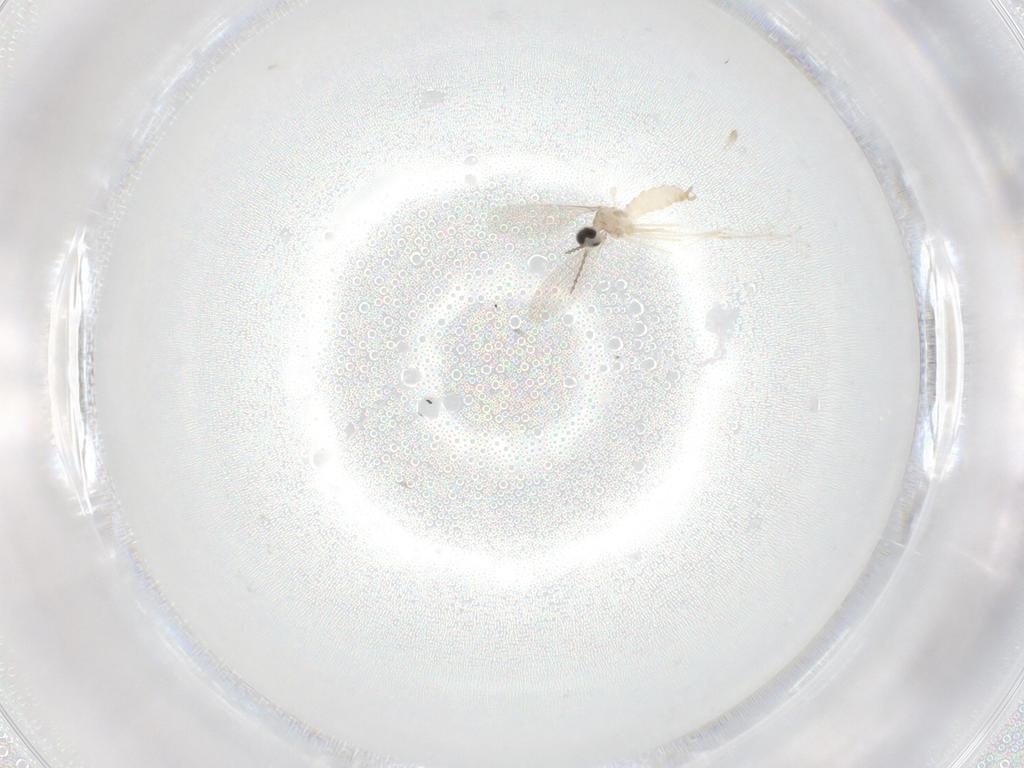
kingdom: Animalia
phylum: Arthropoda
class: Insecta
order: Diptera
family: Cecidomyiidae
